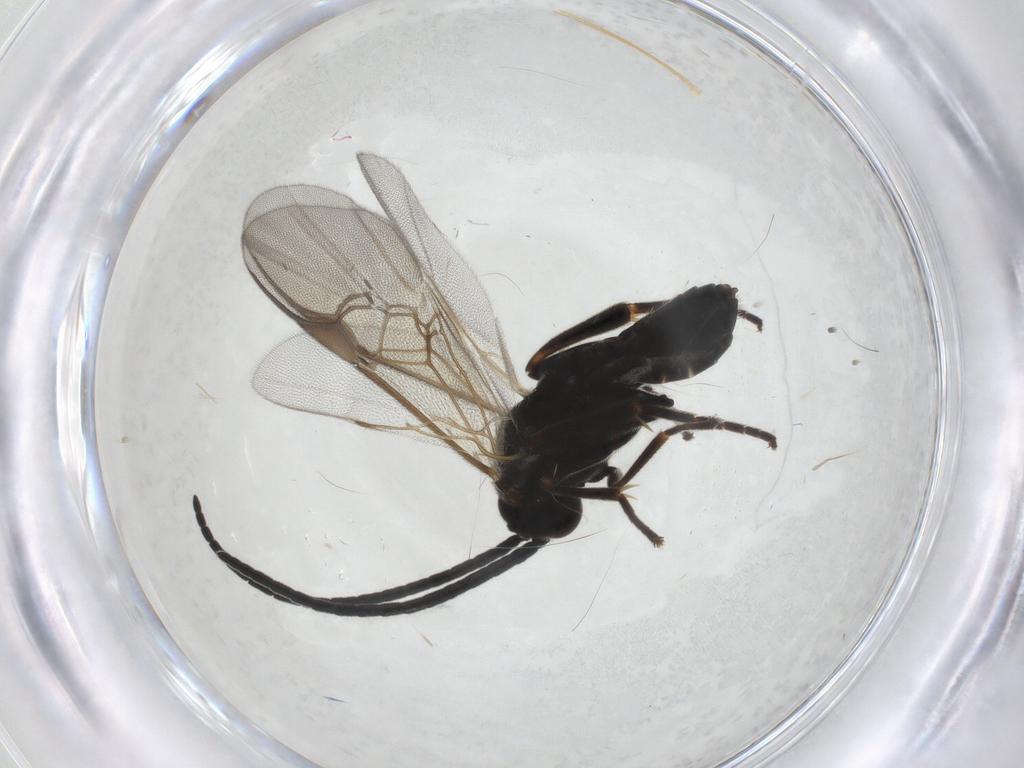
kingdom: Animalia
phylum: Arthropoda
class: Insecta
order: Hymenoptera
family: Braconidae
